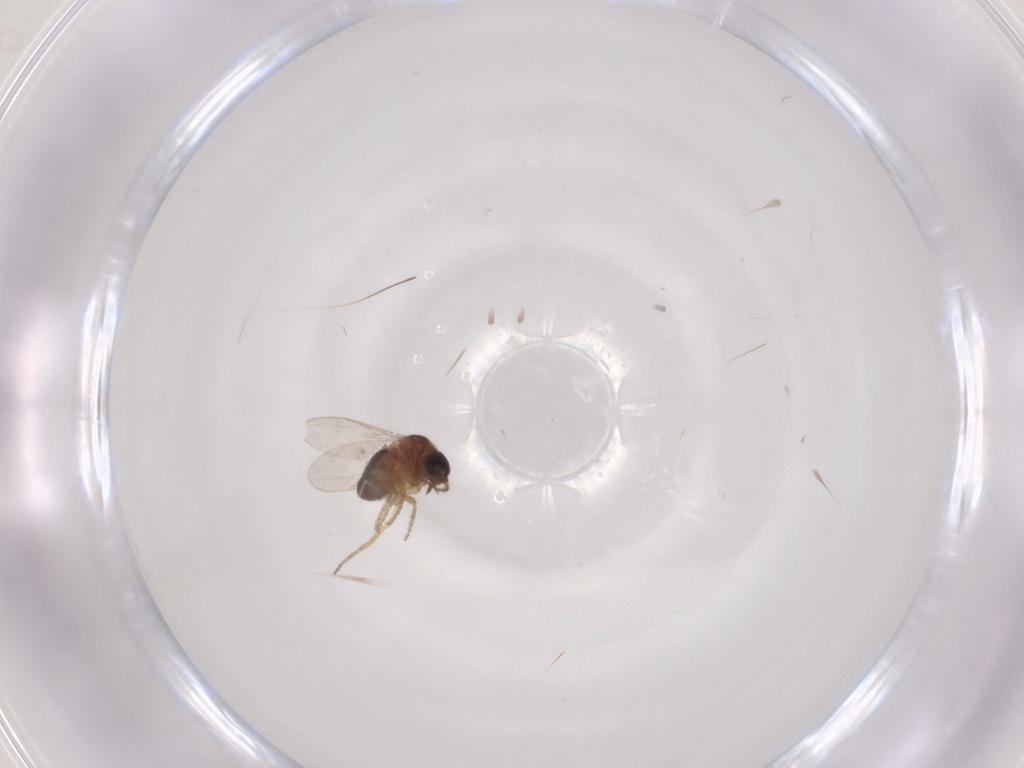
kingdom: Animalia
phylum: Arthropoda
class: Insecta
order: Diptera
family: Ceratopogonidae
